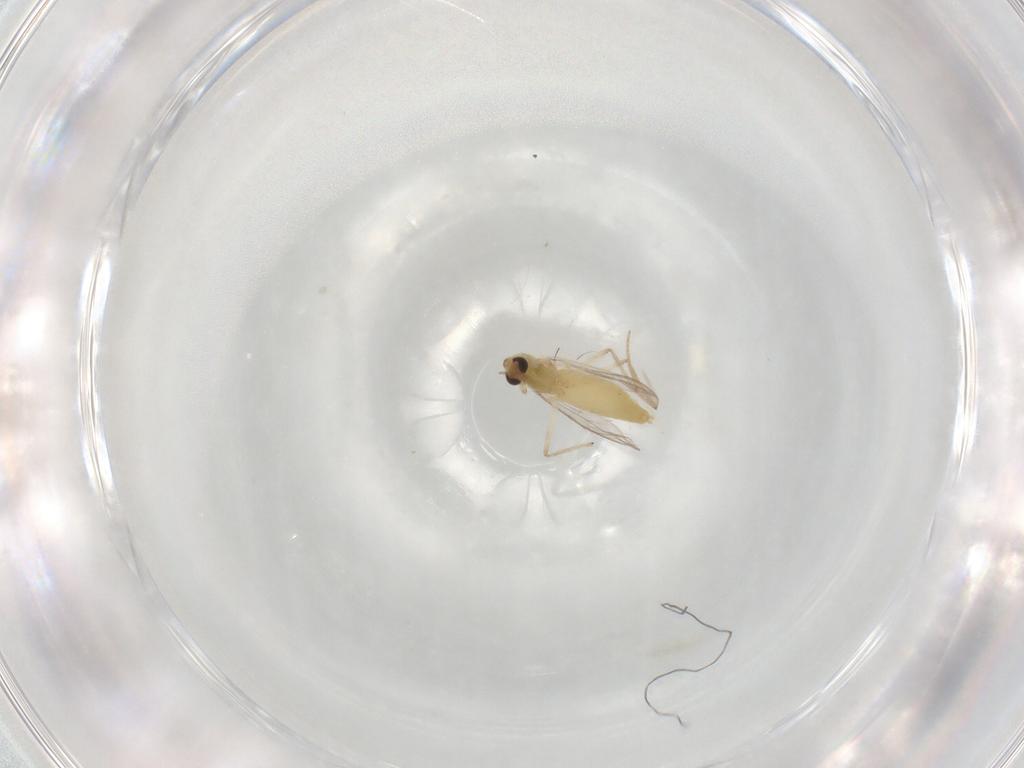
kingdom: Animalia
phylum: Arthropoda
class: Insecta
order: Diptera
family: Chironomidae
